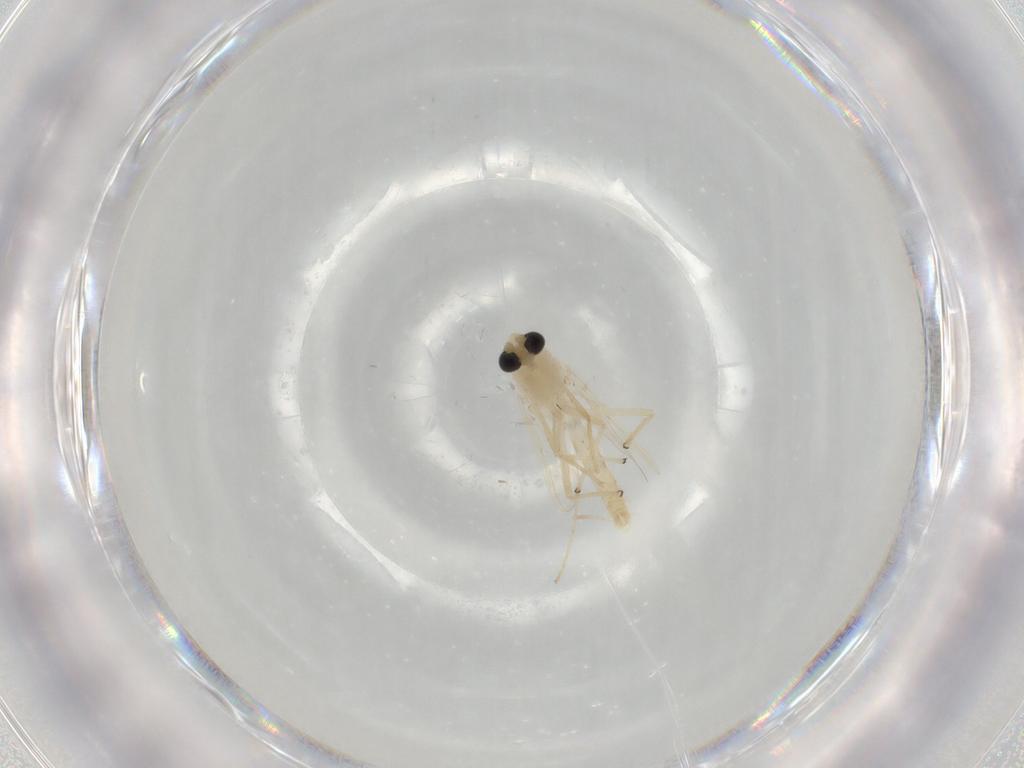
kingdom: Animalia
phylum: Arthropoda
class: Insecta
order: Diptera
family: Chironomidae
